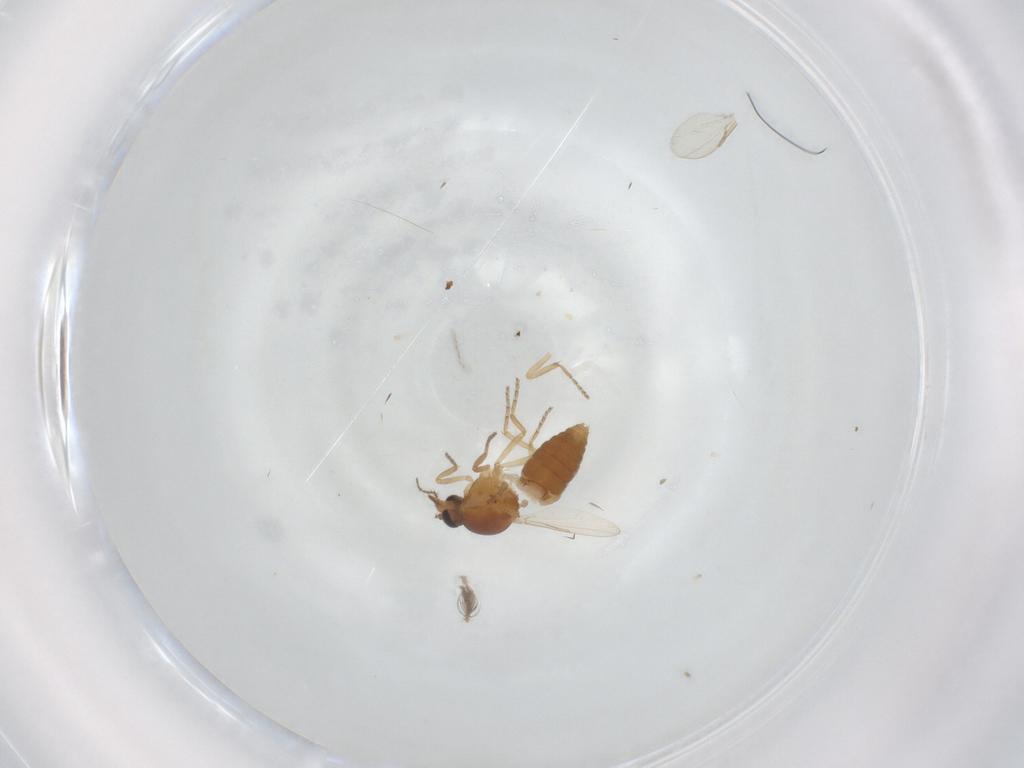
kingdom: Animalia
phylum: Arthropoda
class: Insecta
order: Diptera
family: Ceratopogonidae
